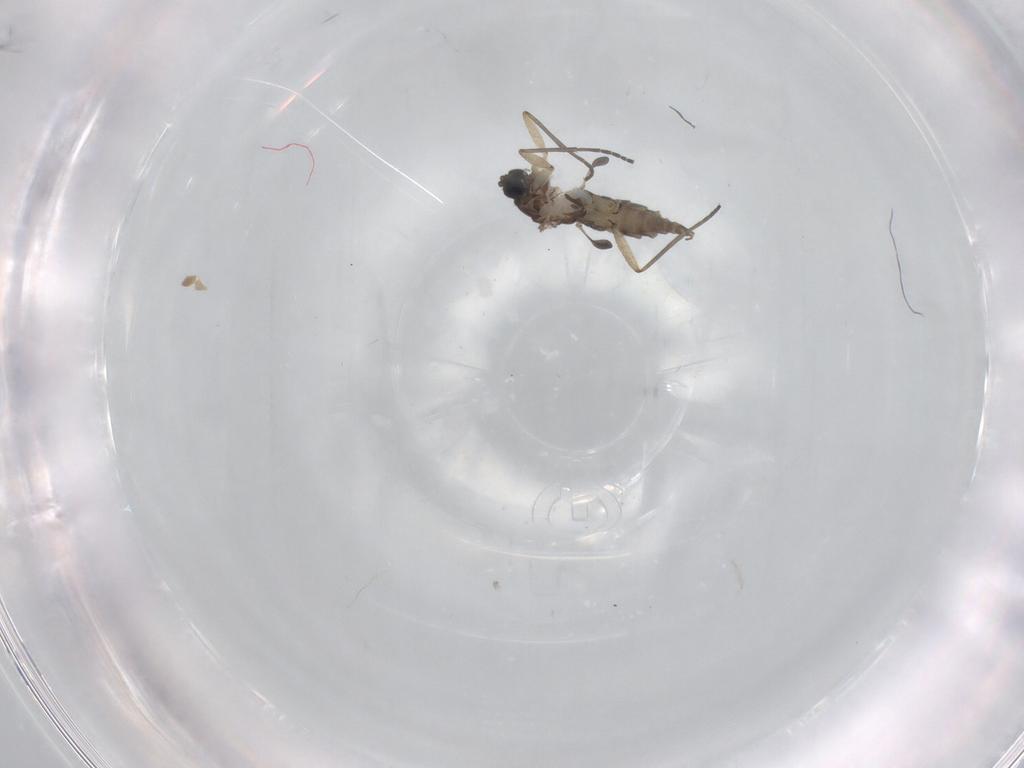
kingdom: Animalia
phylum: Arthropoda
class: Insecta
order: Diptera
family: Sciaridae
